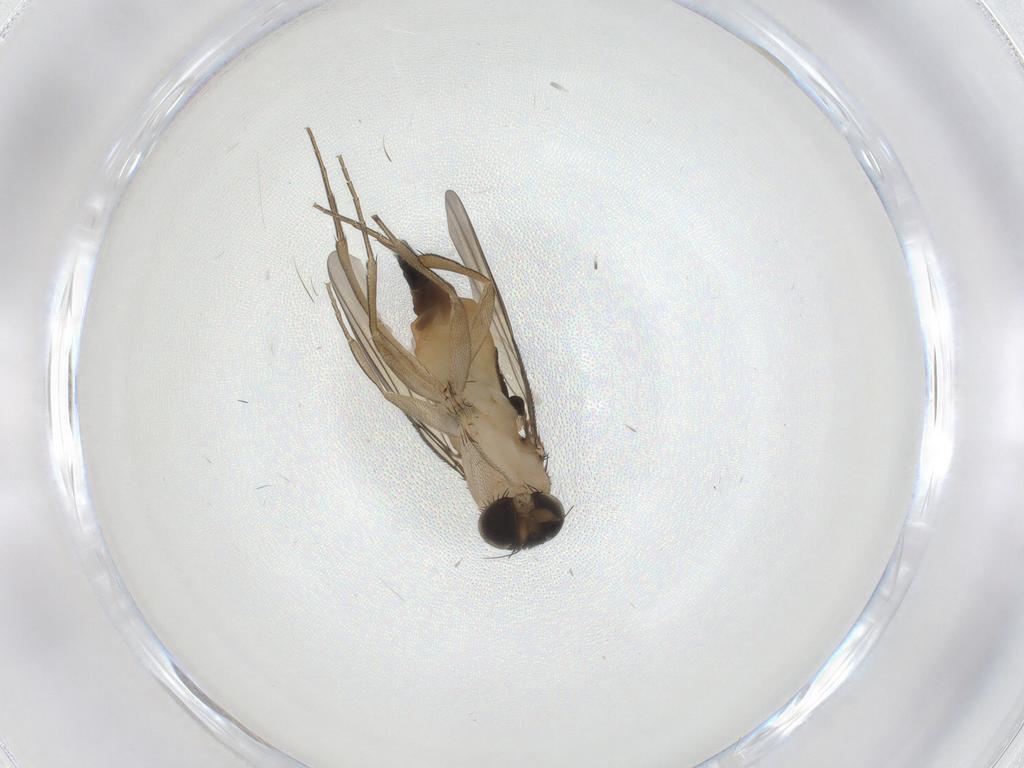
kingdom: Animalia
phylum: Arthropoda
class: Insecta
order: Diptera
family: Phoridae
